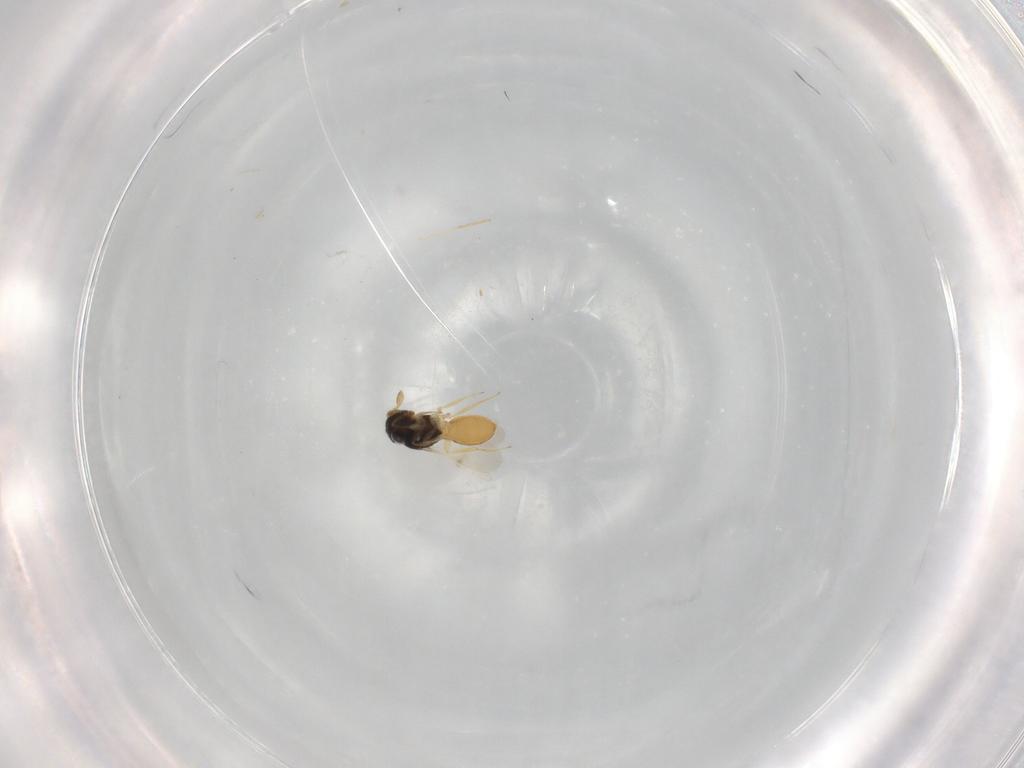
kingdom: Animalia
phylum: Arthropoda
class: Insecta
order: Hymenoptera
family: Scelionidae
